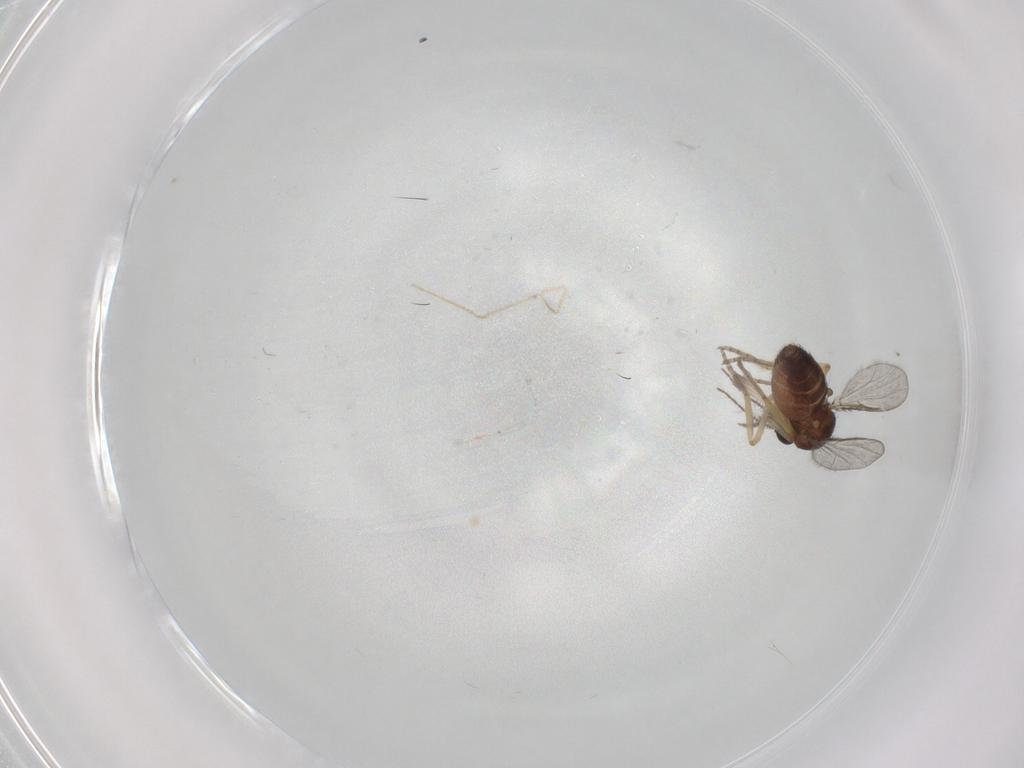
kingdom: Animalia
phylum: Arthropoda
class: Insecta
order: Diptera
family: Ceratopogonidae
